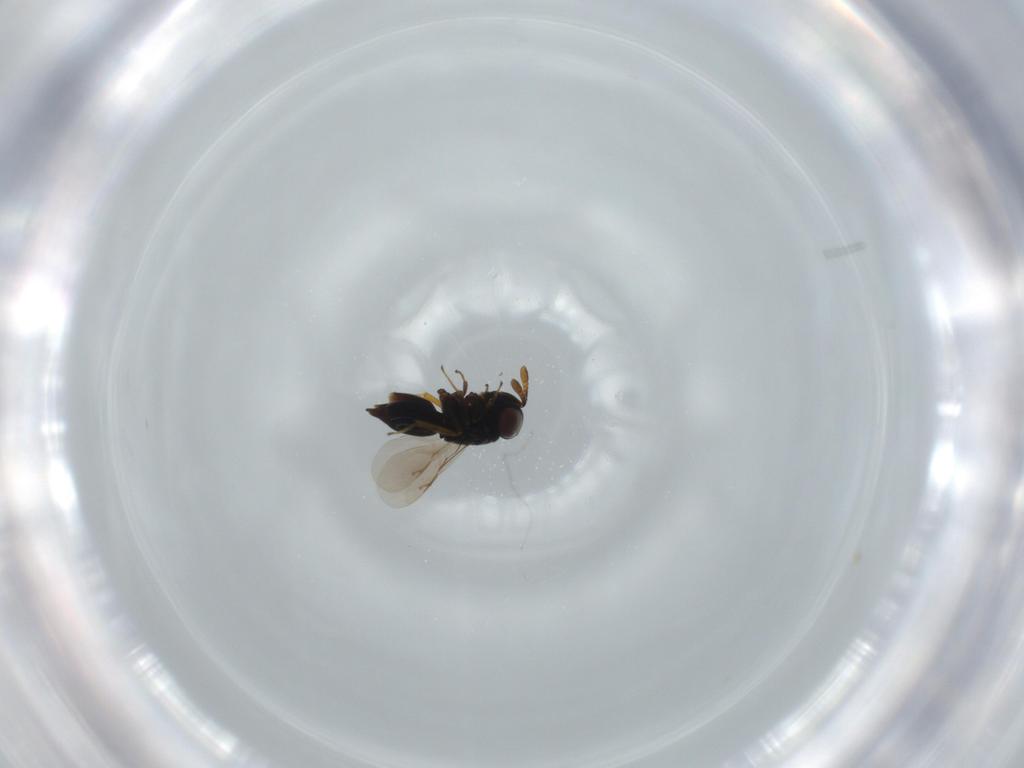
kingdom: Animalia
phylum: Arthropoda
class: Insecta
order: Hymenoptera
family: Eunotidae
